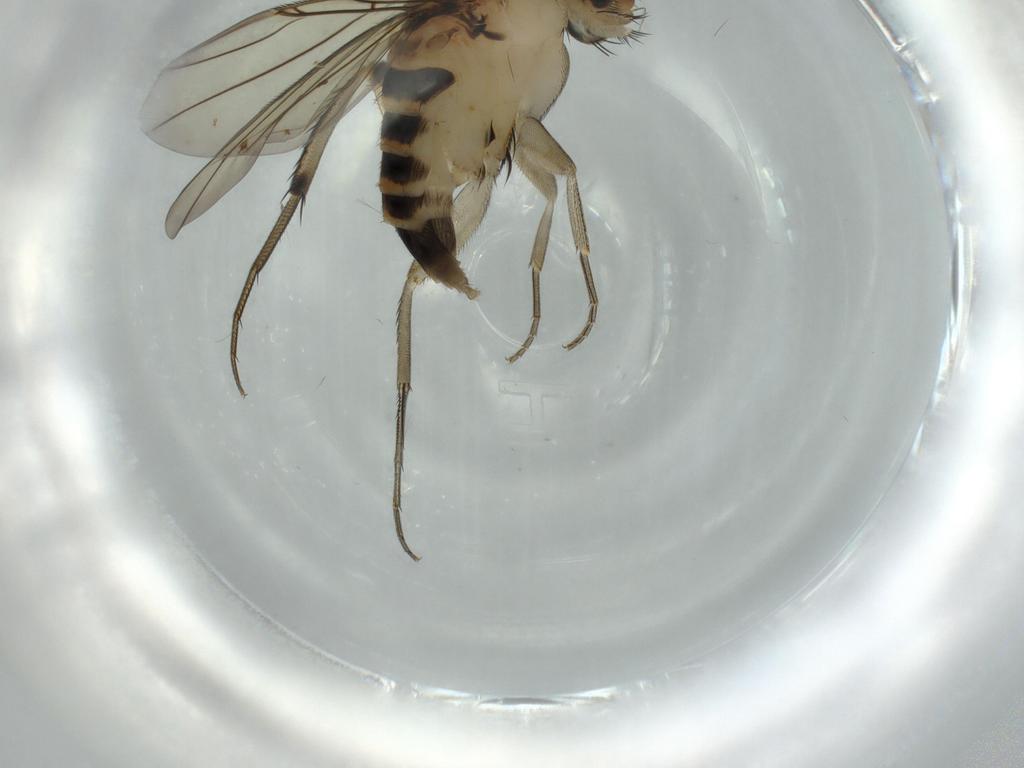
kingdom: Animalia
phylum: Arthropoda
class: Insecta
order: Diptera
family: Phoridae
